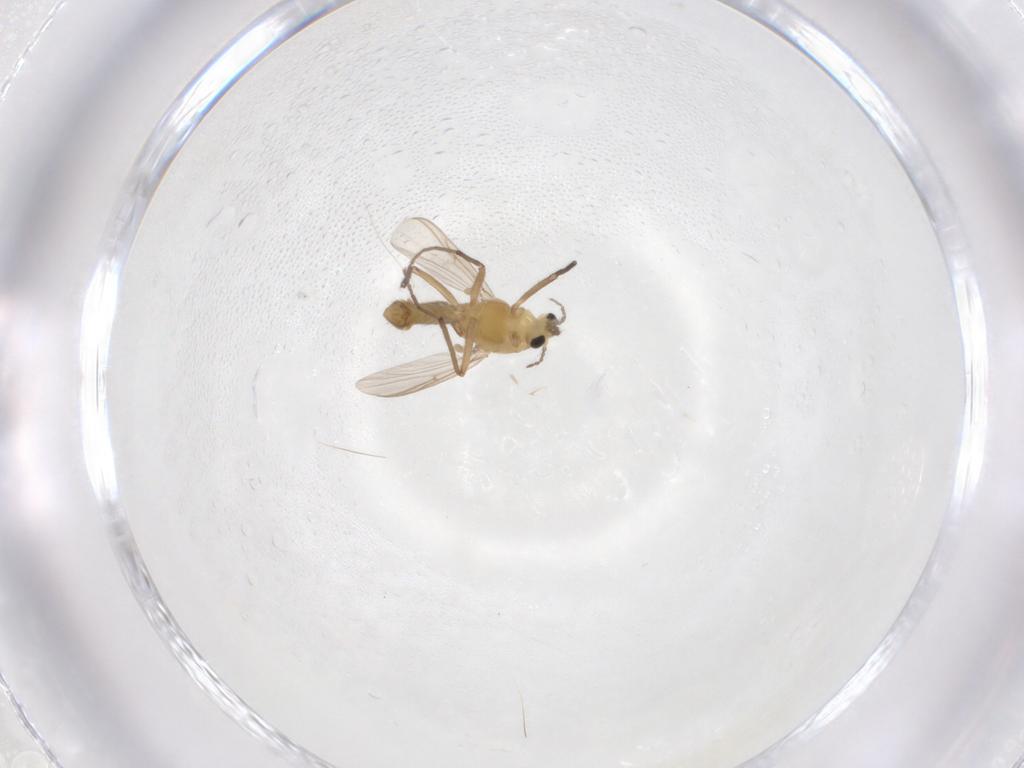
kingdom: Animalia
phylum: Arthropoda
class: Insecta
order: Diptera
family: Chironomidae
